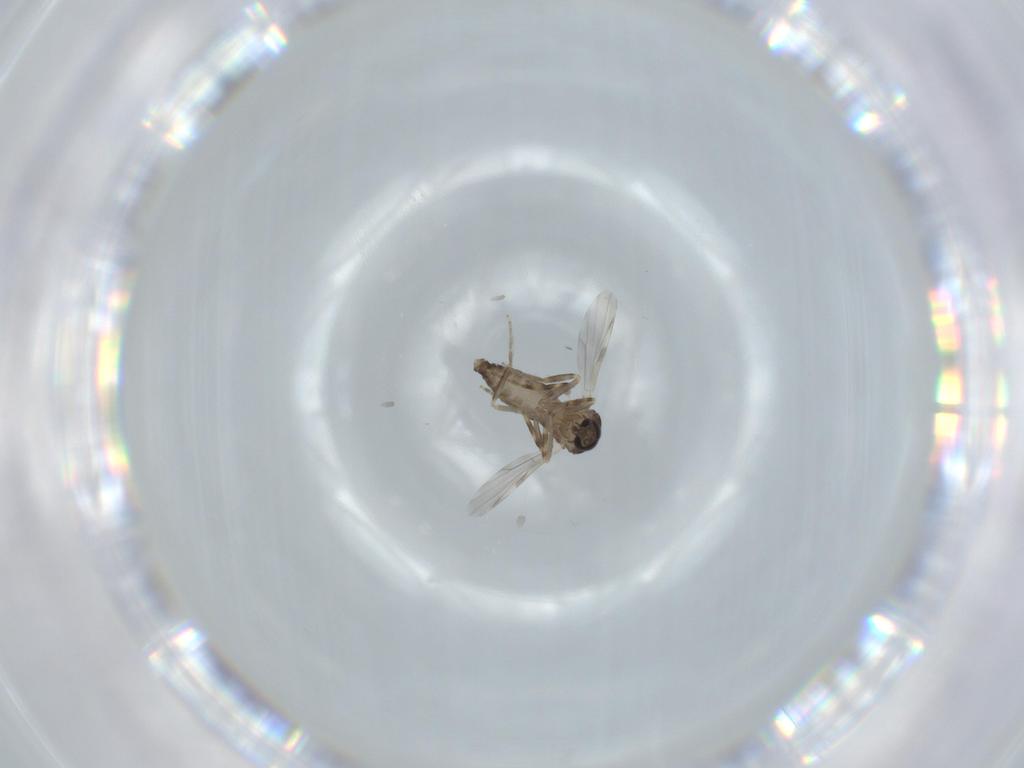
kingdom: Animalia
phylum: Arthropoda
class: Insecta
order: Diptera
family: Ceratopogonidae
